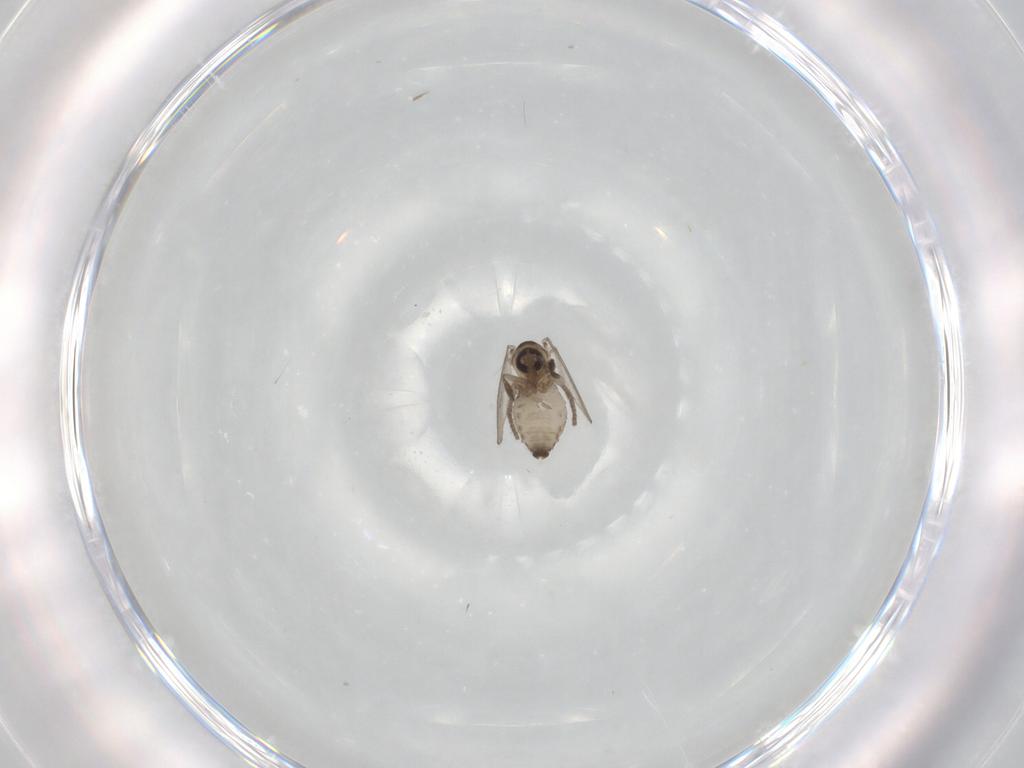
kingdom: Animalia
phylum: Arthropoda
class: Insecta
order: Diptera
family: Psychodidae
